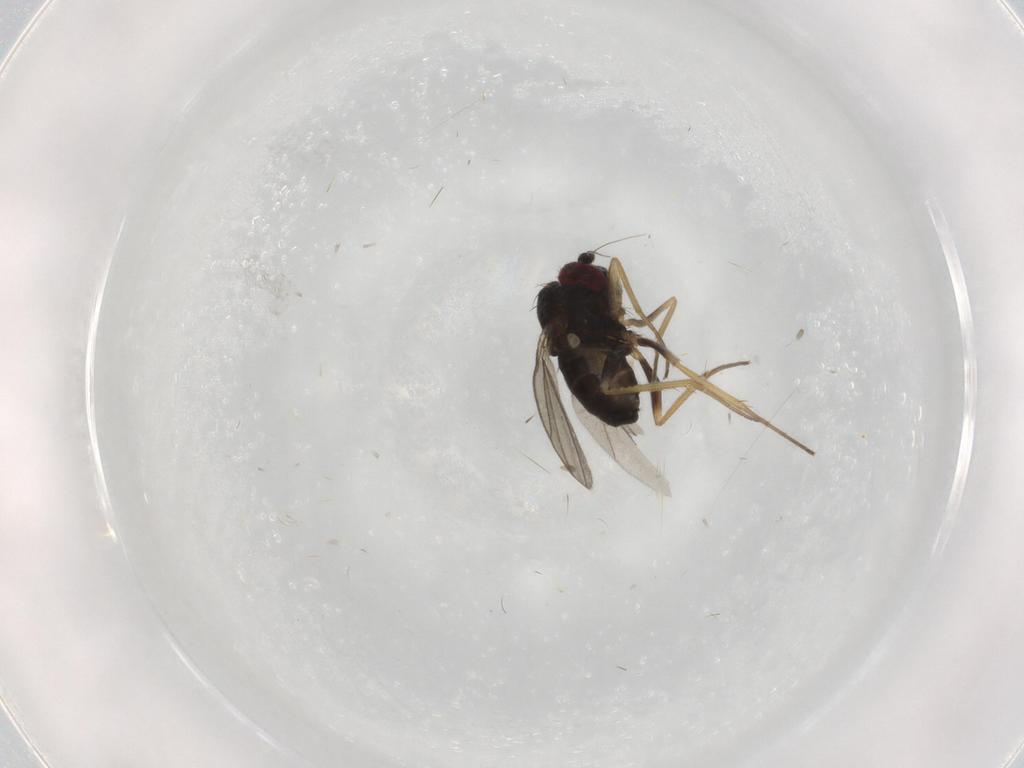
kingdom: Animalia
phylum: Arthropoda
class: Insecta
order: Diptera
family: Dolichopodidae
